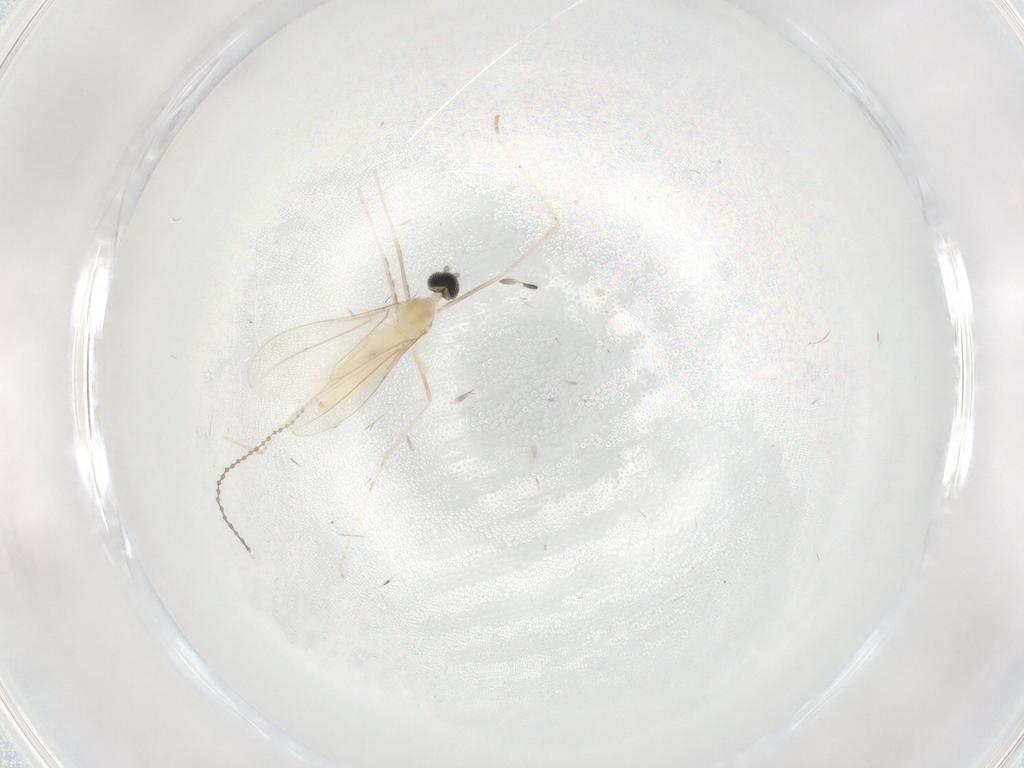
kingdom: Animalia
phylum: Arthropoda
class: Insecta
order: Diptera
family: Cecidomyiidae
